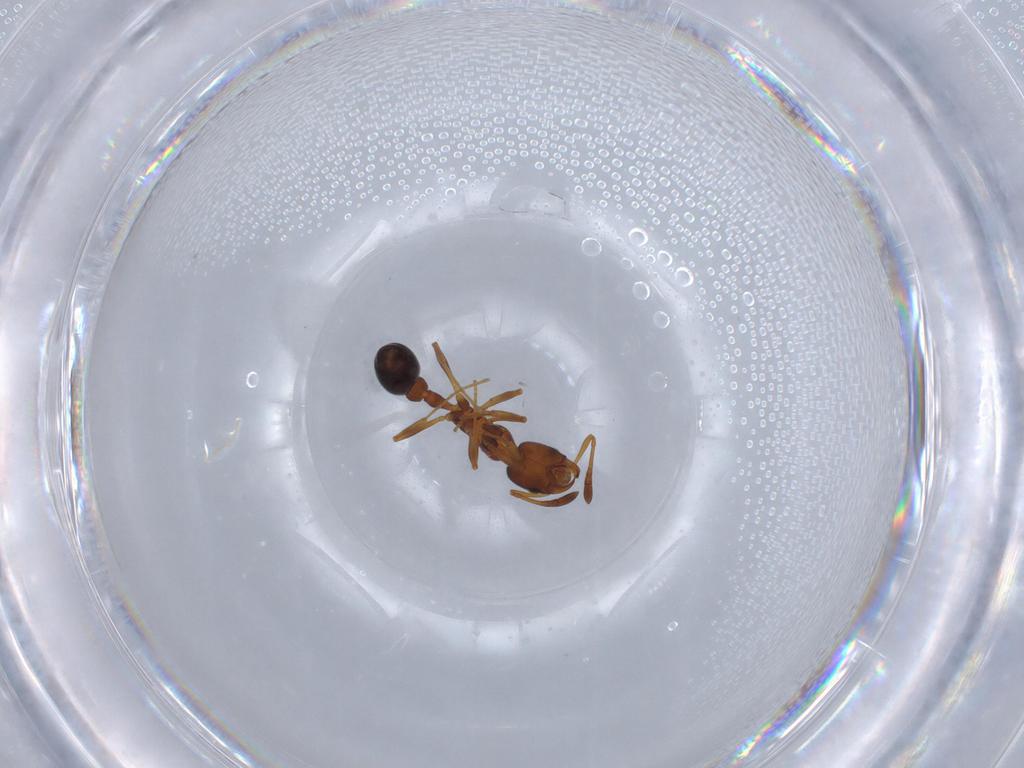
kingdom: Animalia
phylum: Arthropoda
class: Insecta
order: Hymenoptera
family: Formicidae
